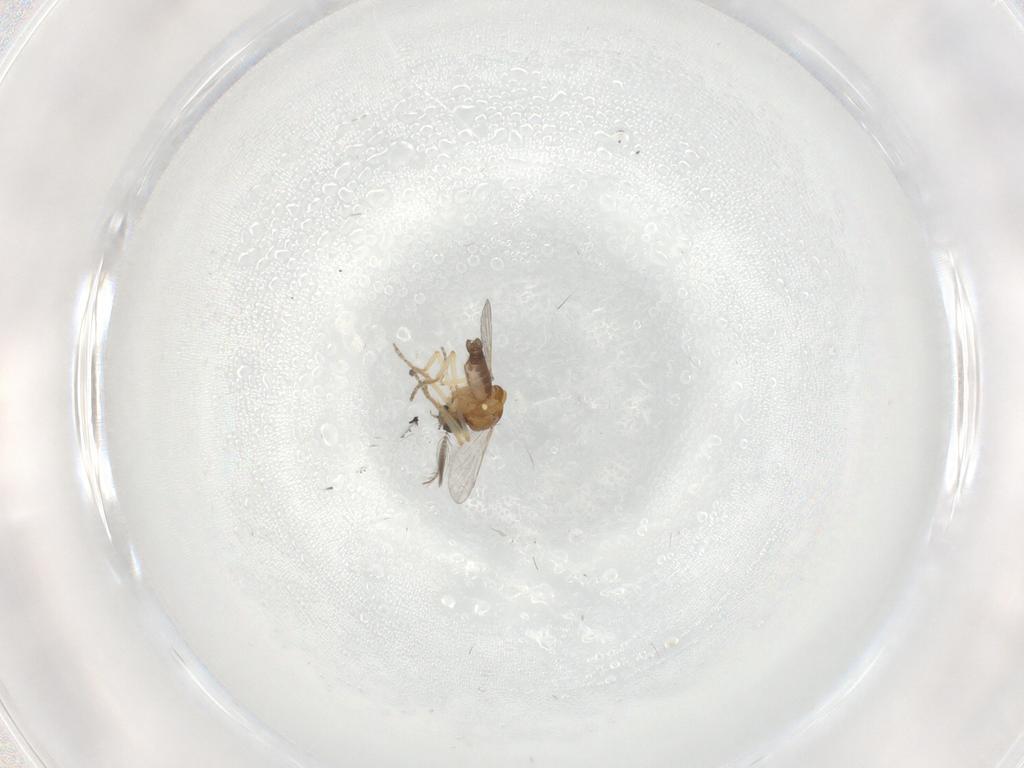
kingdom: Animalia
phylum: Arthropoda
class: Insecta
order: Diptera
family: Ceratopogonidae
